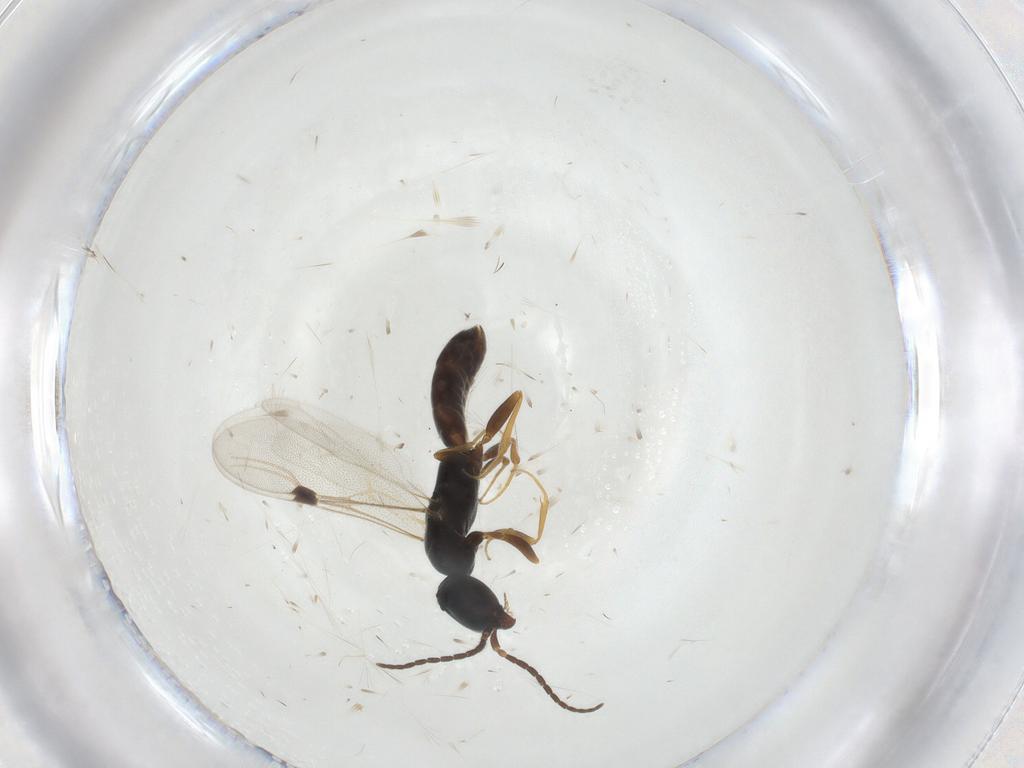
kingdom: Animalia
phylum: Arthropoda
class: Insecta
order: Hymenoptera
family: Bethylidae
